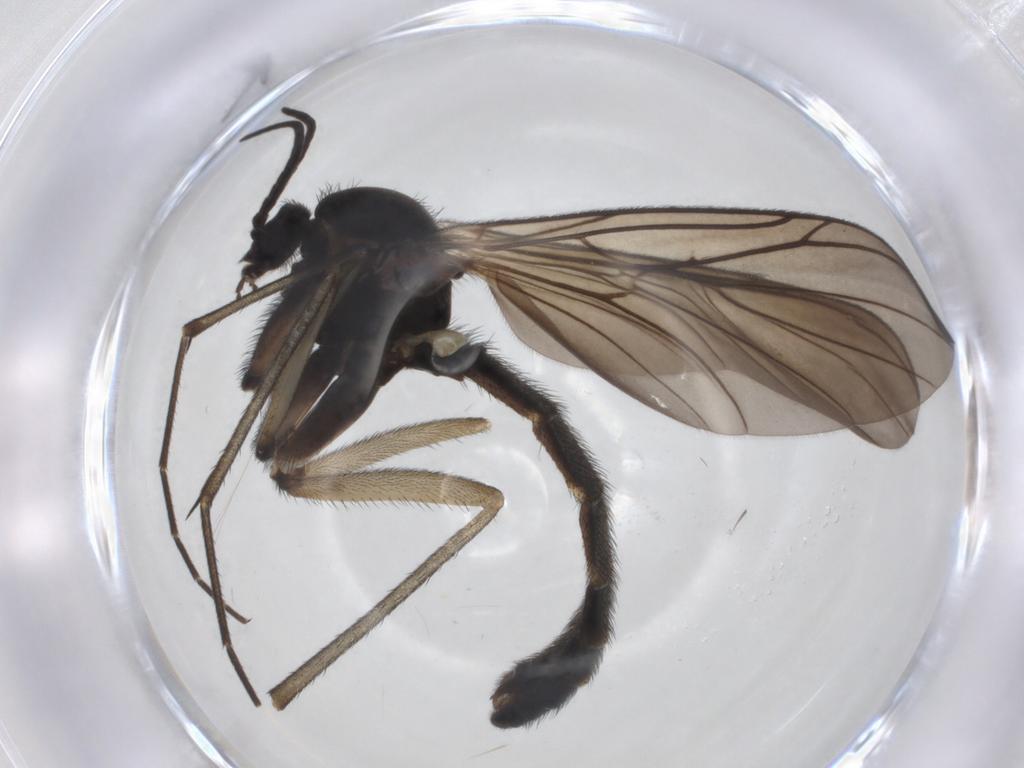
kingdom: Animalia
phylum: Arthropoda
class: Insecta
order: Diptera
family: Keroplatidae
